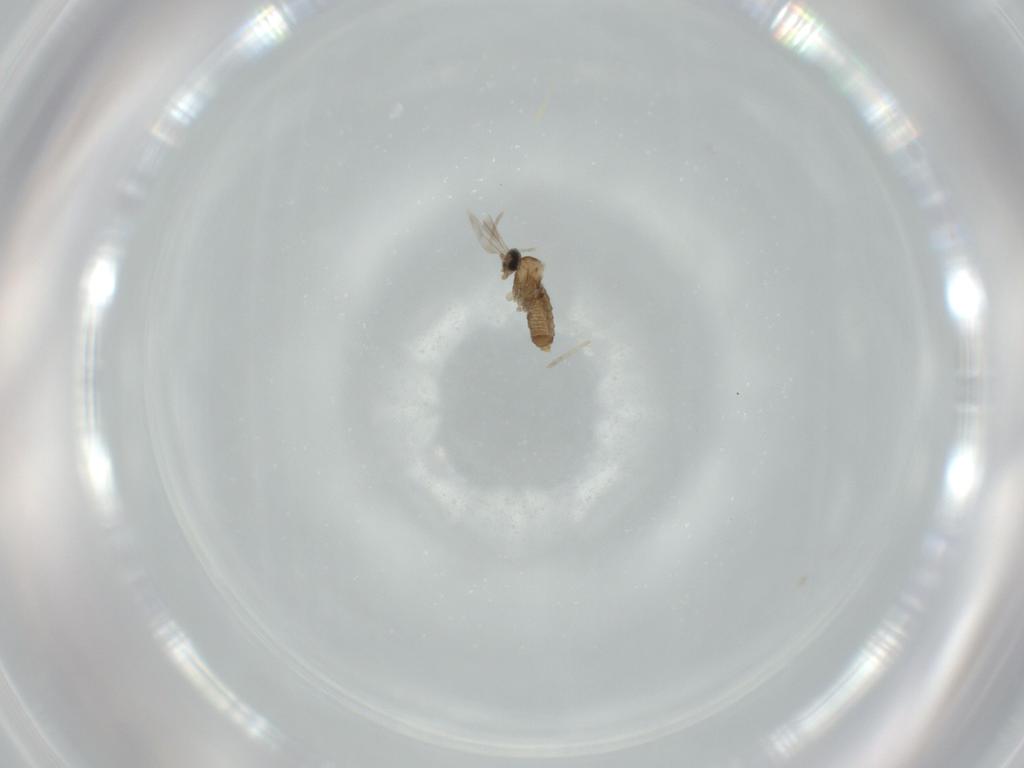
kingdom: Animalia
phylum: Arthropoda
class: Insecta
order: Diptera
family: Cecidomyiidae
